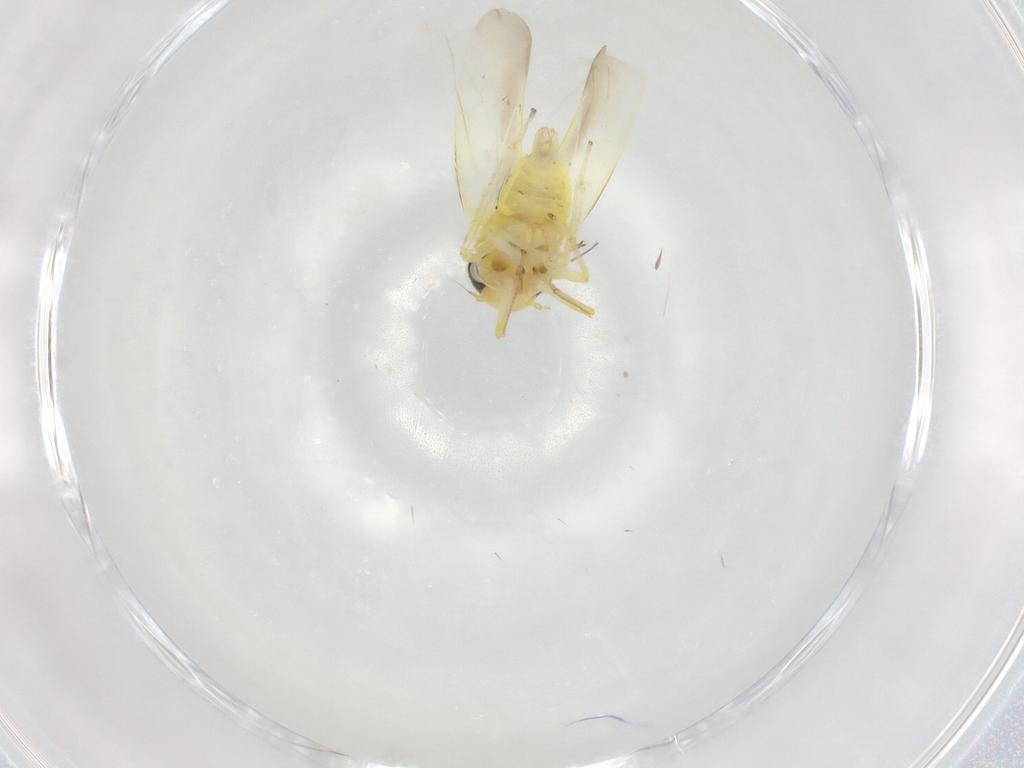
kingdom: Animalia
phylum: Arthropoda
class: Insecta
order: Hemiptera
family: Cicadellidae
